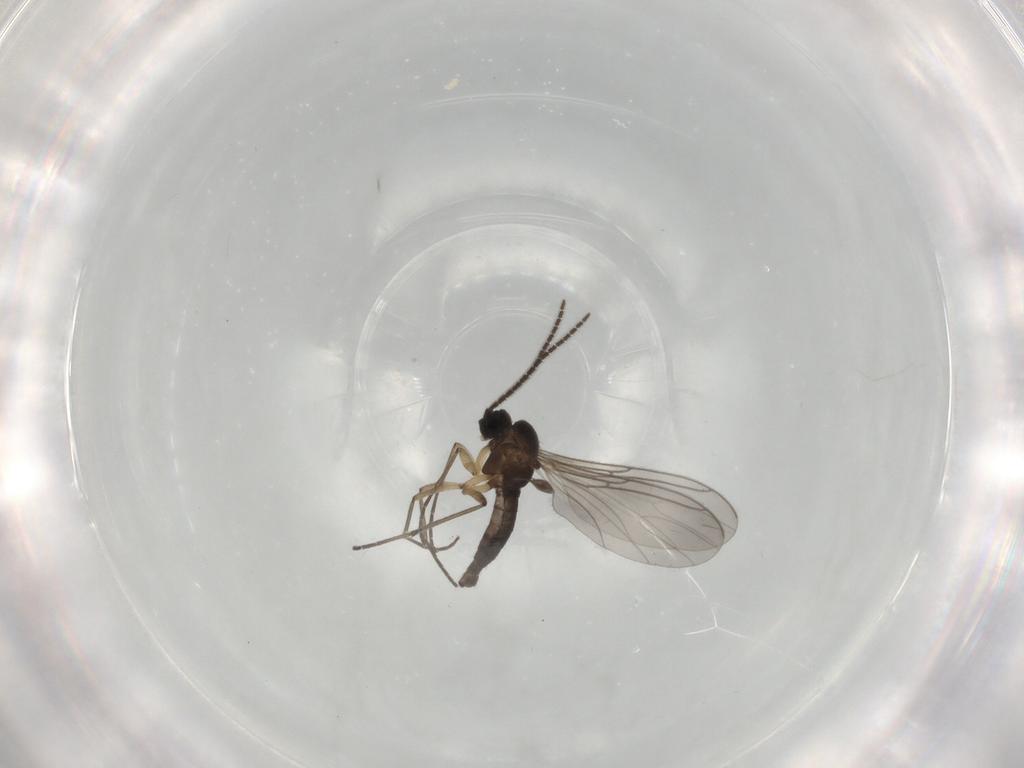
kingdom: Animalia
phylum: Arthropoda
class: Insecta
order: Diptera
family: Sciaridae
